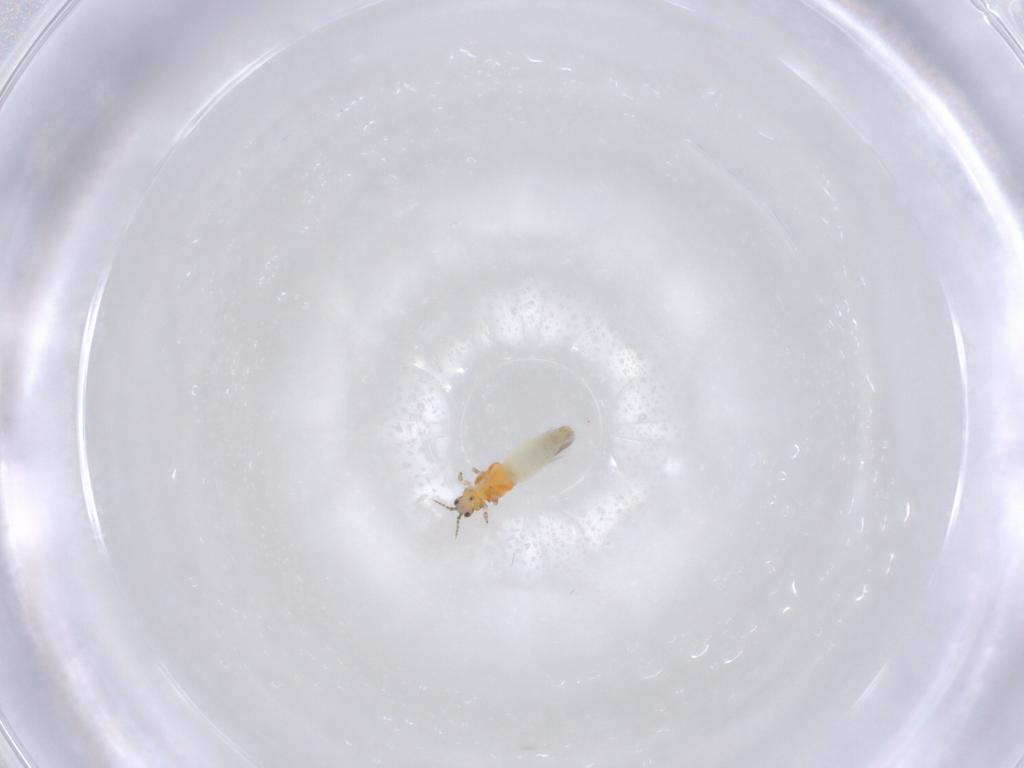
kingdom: Animalia
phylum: Arthropoda
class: Insecta
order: Thysanoptera
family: Thripidae
